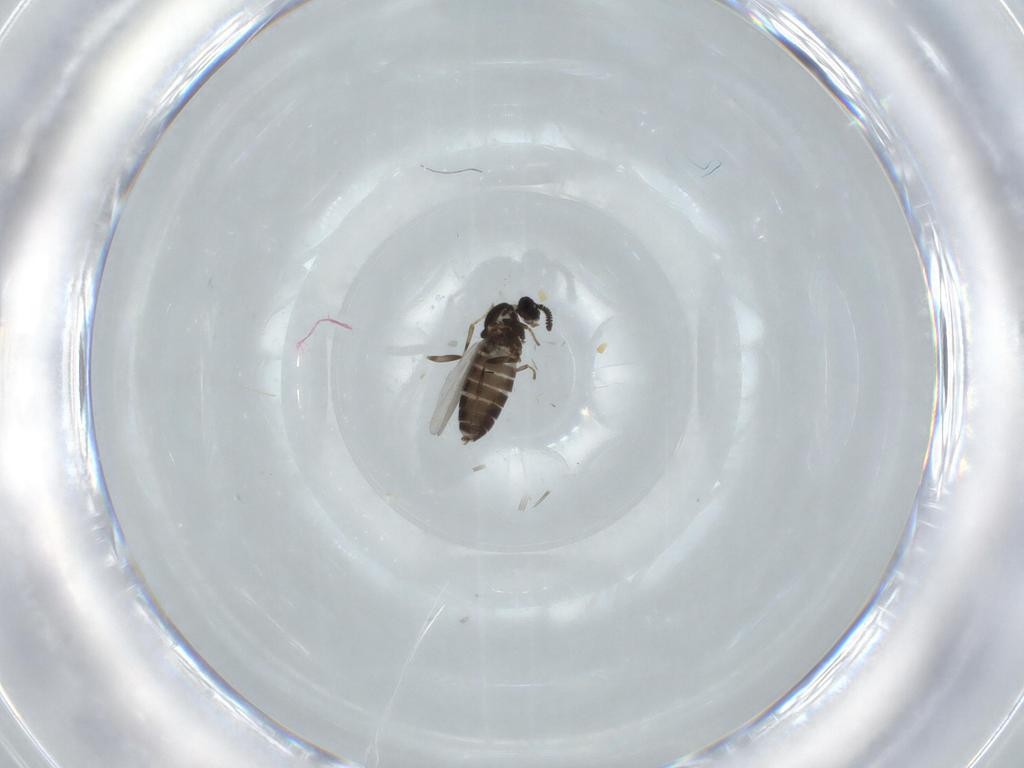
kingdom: Animalia
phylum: Arthropoda
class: Insecta
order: Diptera
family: Scatopsidae
